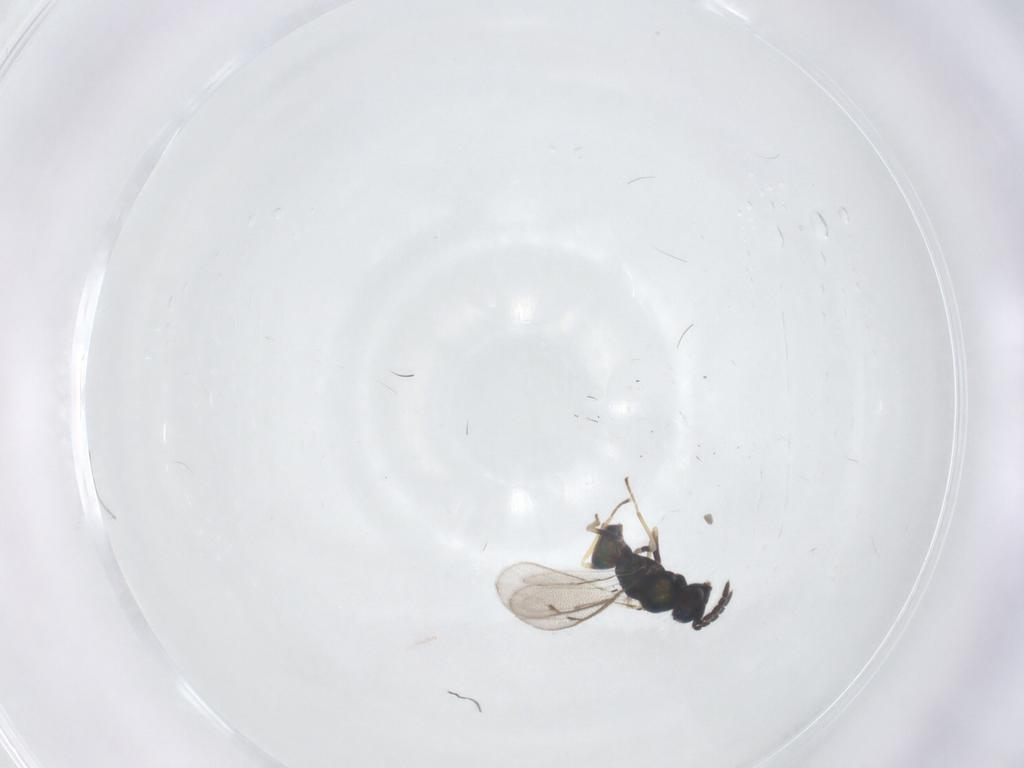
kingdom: Animalia
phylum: Arthropoda
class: Insecta
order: Hymenoptera
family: Eulophidae
